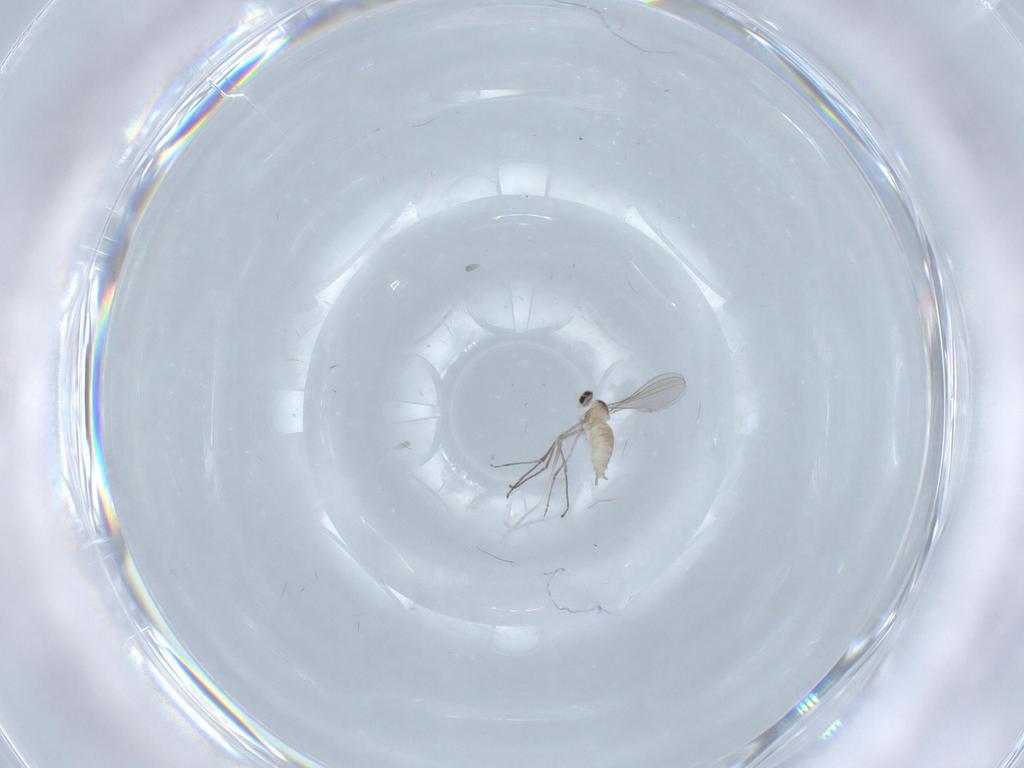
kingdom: Animalia
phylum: Arthropoda
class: Insecta
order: Diptera
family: Cecidomyiidae
